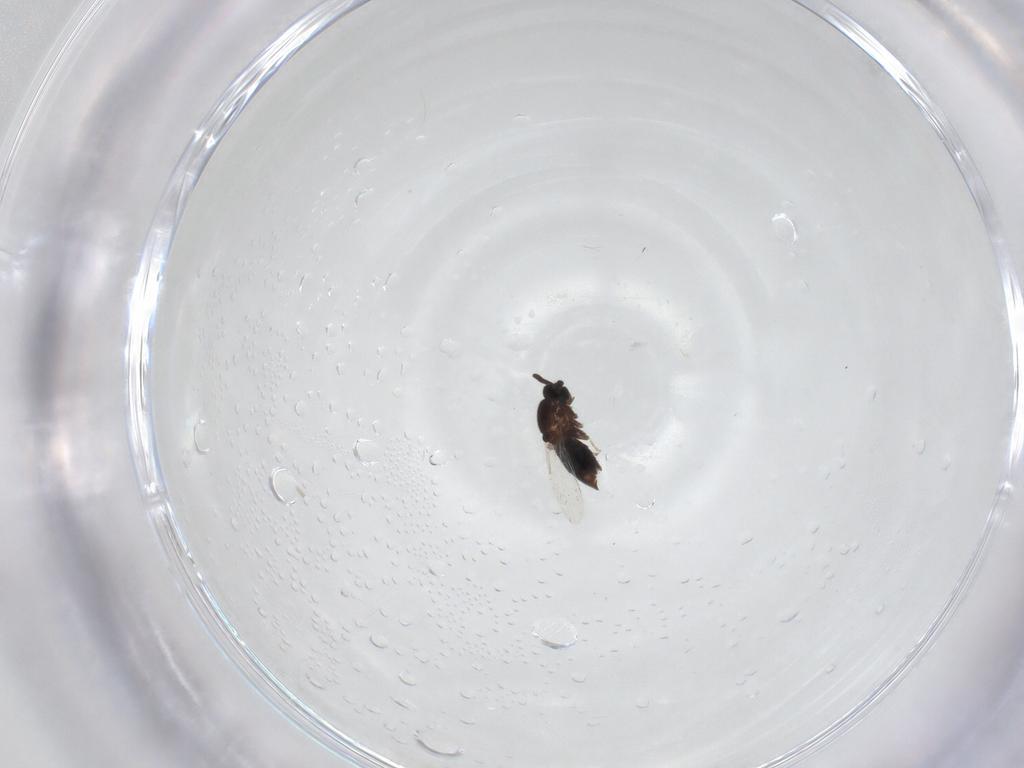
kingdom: Animalia
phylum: Arthropoda
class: Insecta
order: Diptera
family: Scatopsidae
